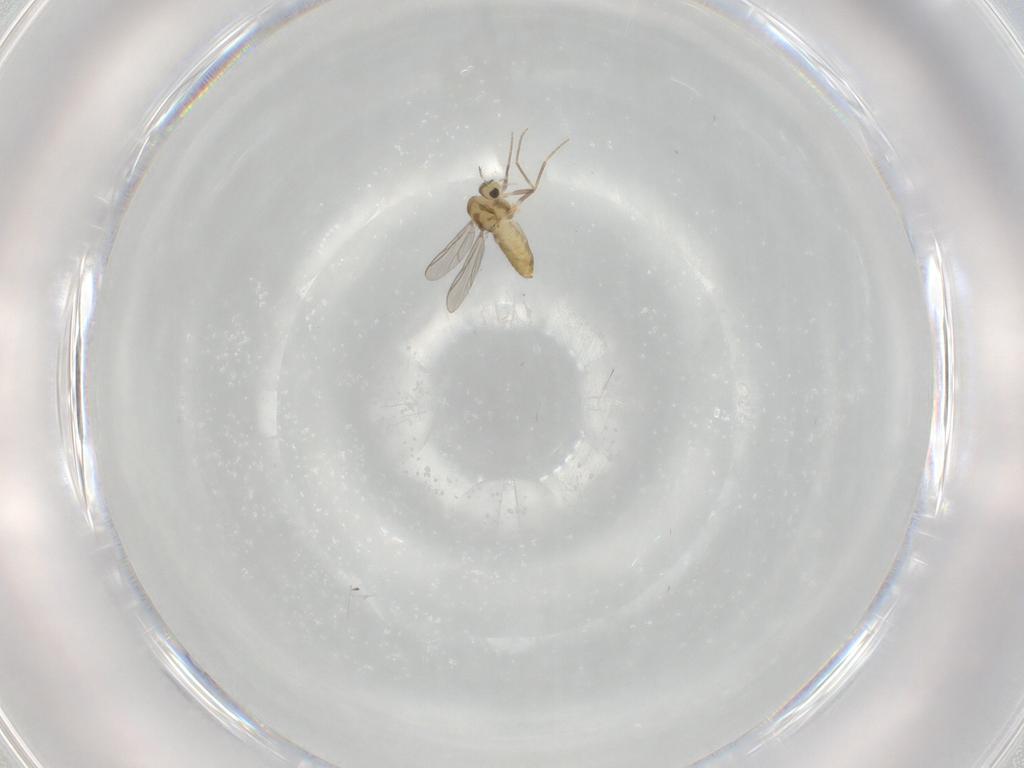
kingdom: Animalia
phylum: Arthropoda
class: Insecta
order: Diptera
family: Chironomidae
